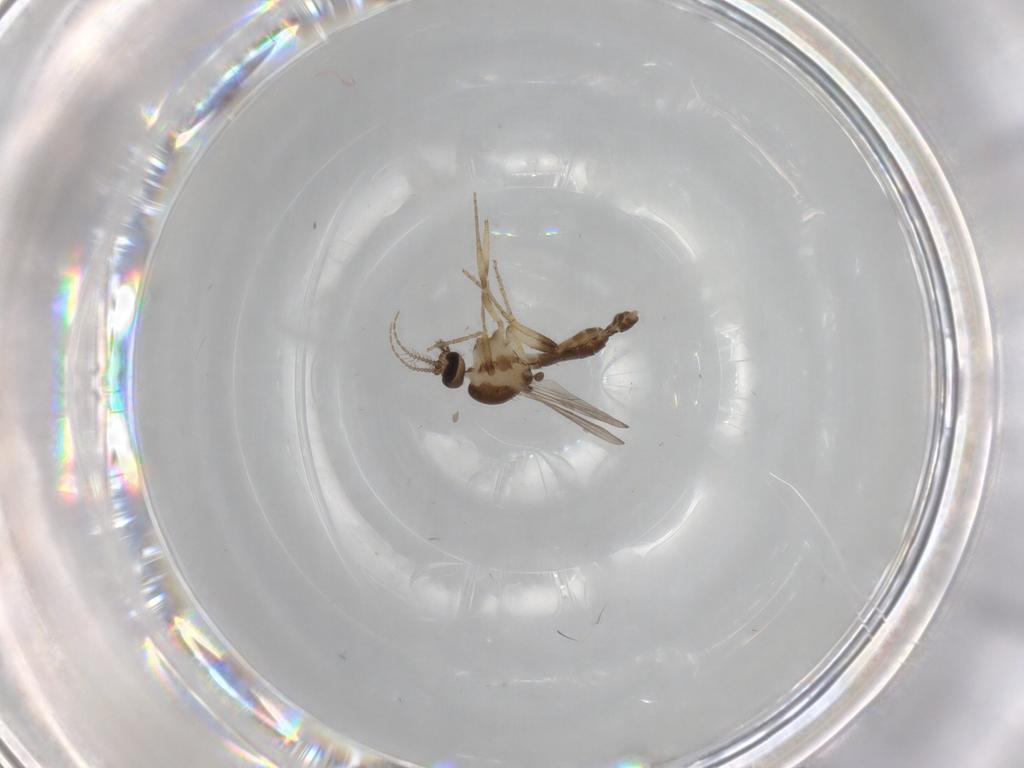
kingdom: Animalia
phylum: Arthropoda
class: Insecta
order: Diptera
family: Ceratopogonidae
